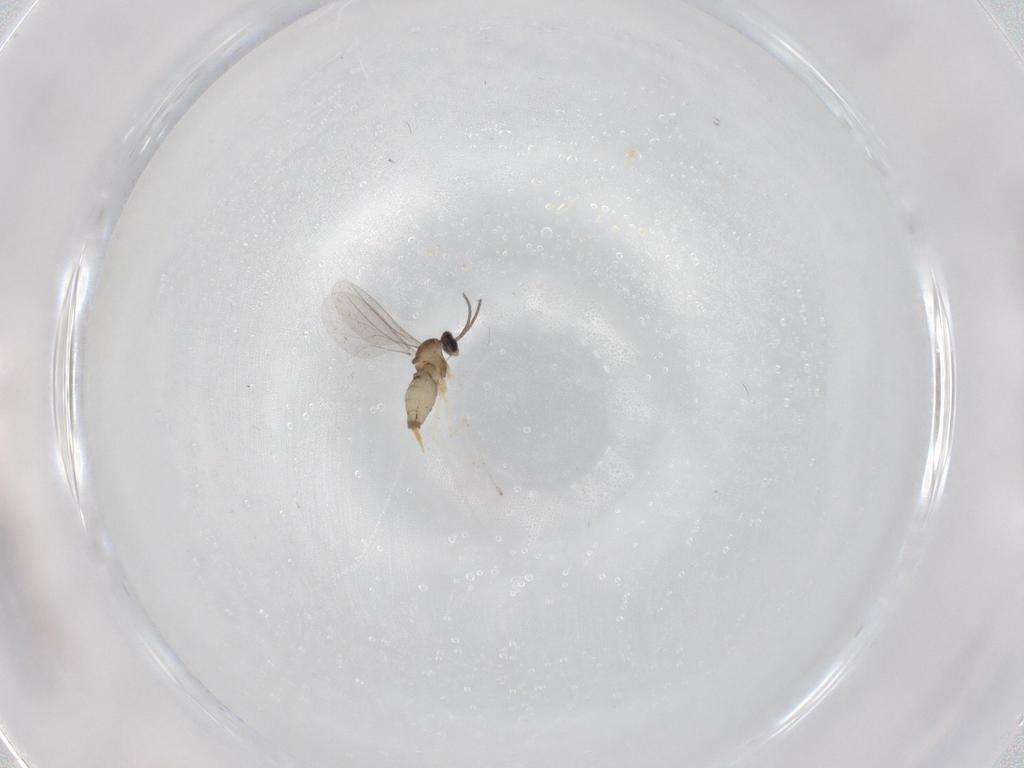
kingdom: Animalia
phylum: Arthropoda
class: Insecta
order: Diptera
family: Cecidomyiidae
